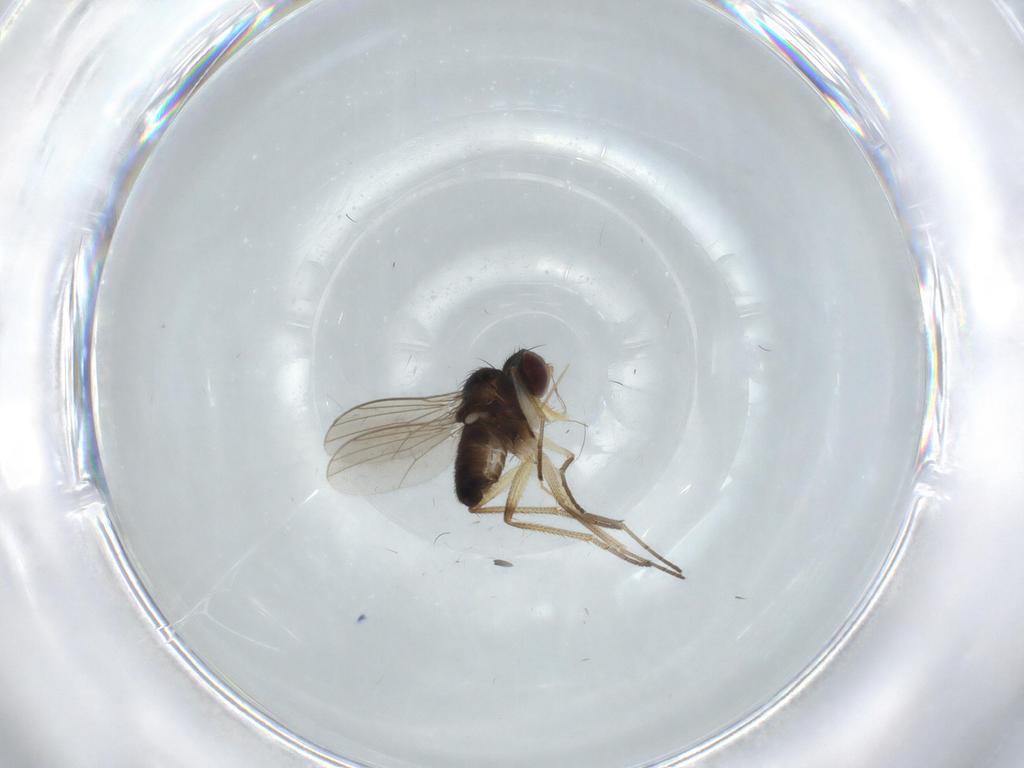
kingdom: Animalia
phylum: Arthropoda
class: Insecta
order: Diptera
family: Dolichopodidae
